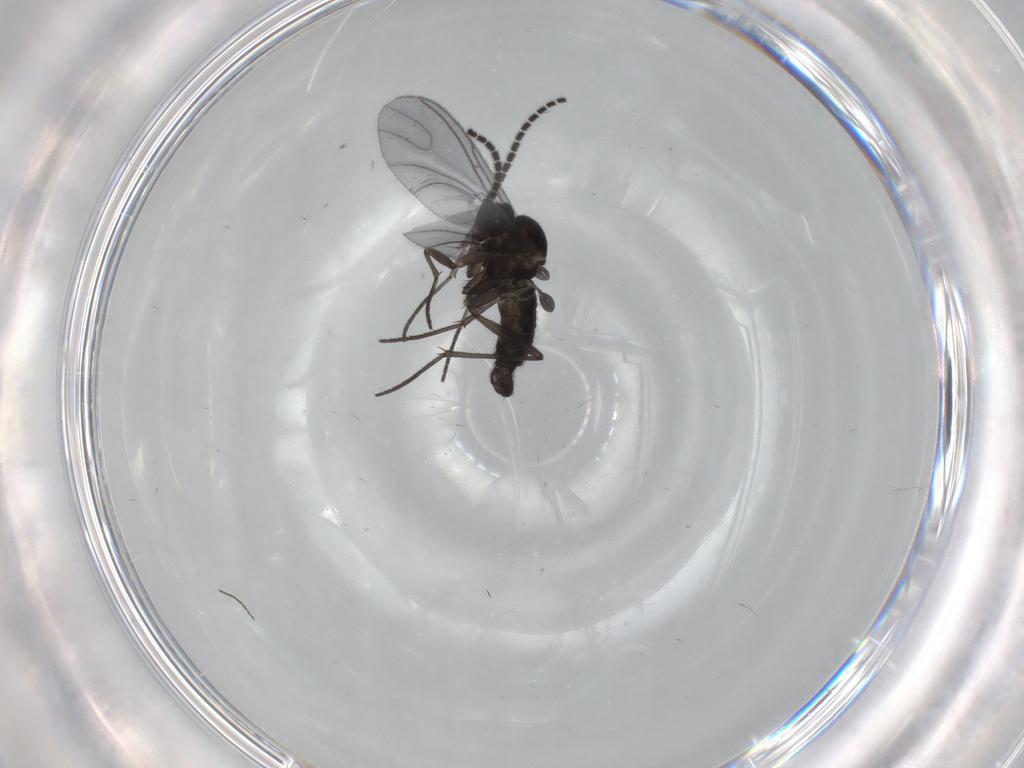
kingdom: Animalia
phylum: Arthropoda
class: Insecta
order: Diptera
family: Sciaridae
